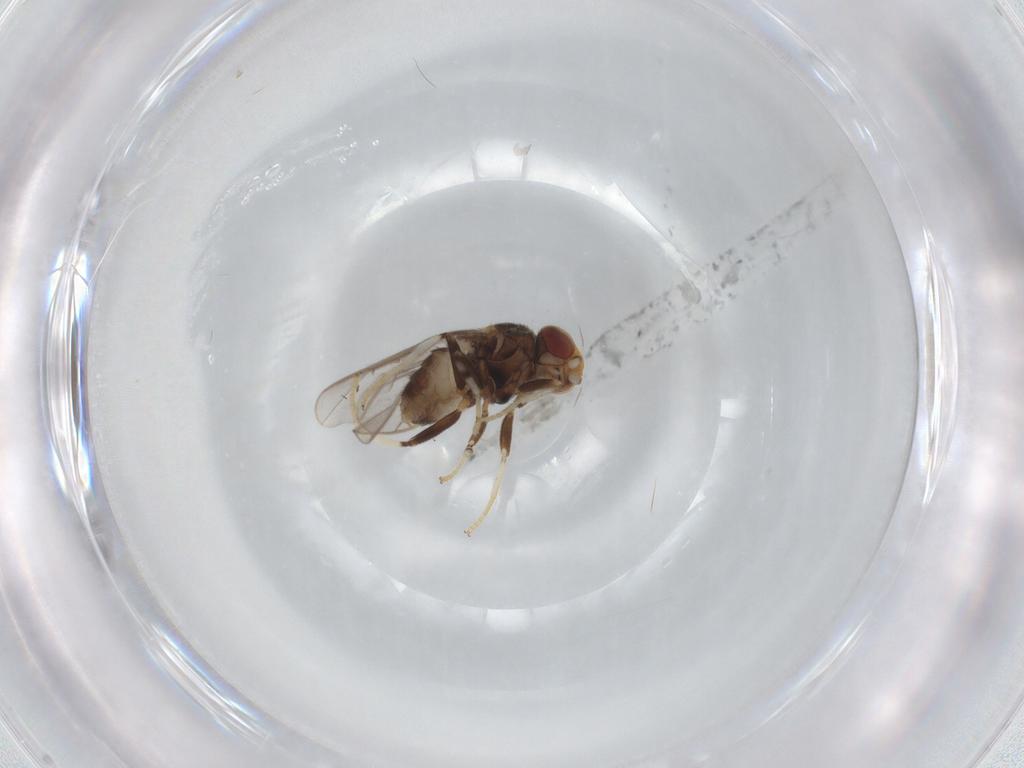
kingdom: Animalia
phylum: Arthropoda
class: Insecta
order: Diptera
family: Chloropidae
